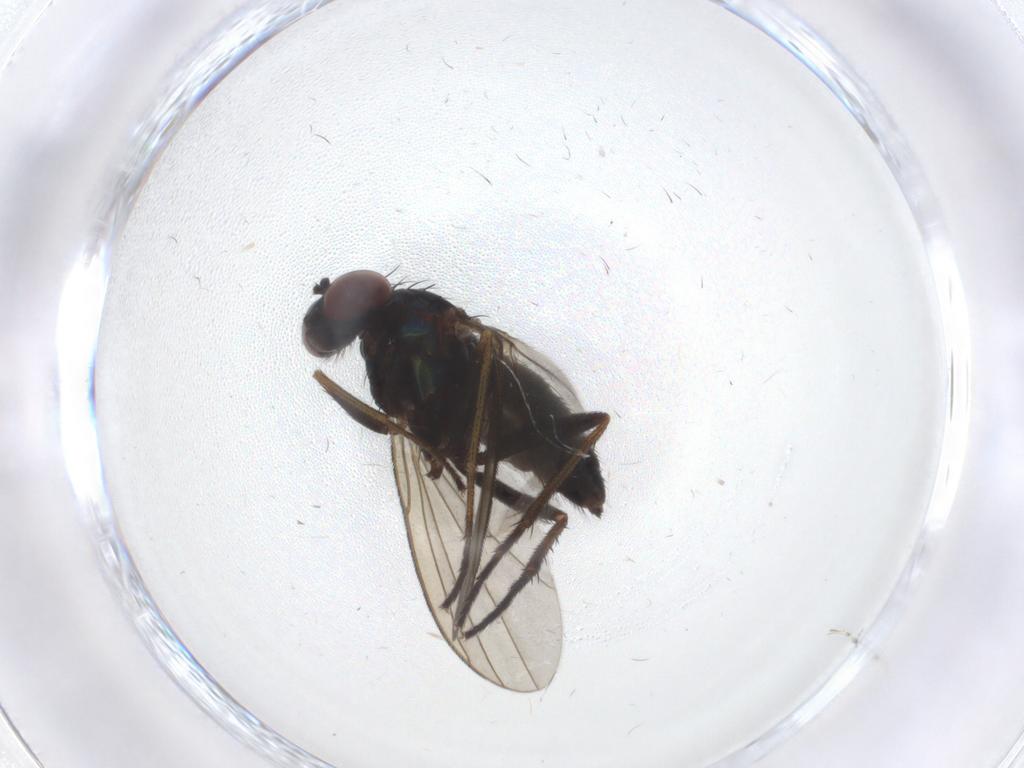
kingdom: Animalia
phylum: Arthropoda
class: Insecta
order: Diptera
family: Dolichopodidae
